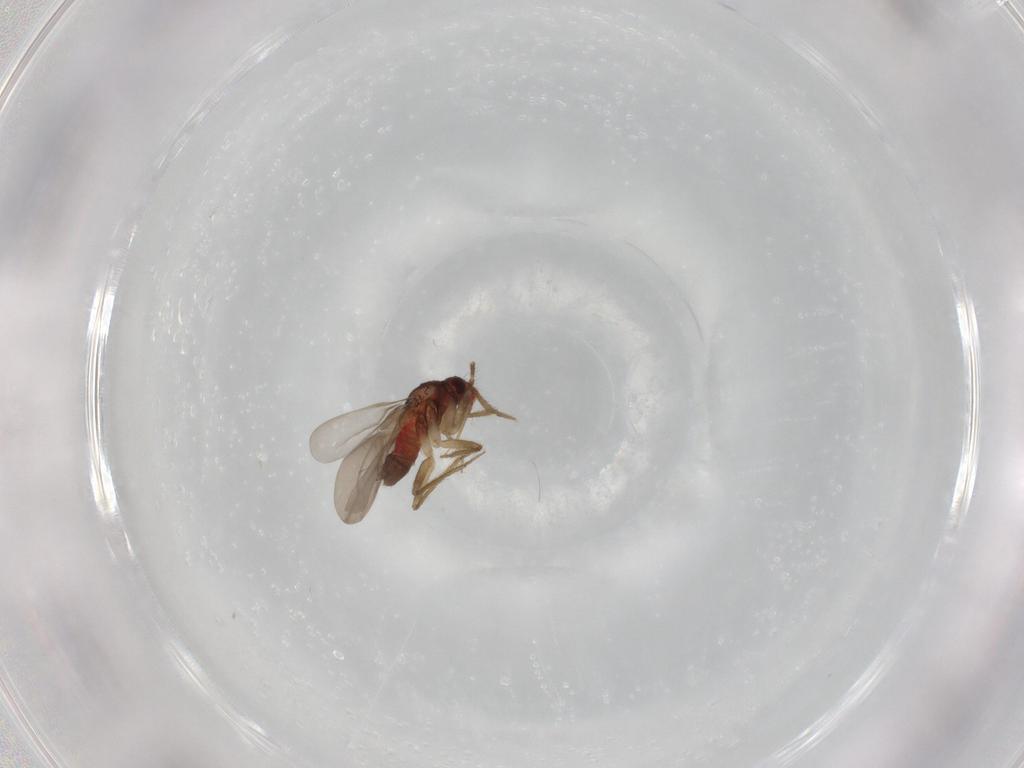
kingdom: Animalia
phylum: Arthropoda
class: Insecta
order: Hemiptera
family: Ceratocombidae
